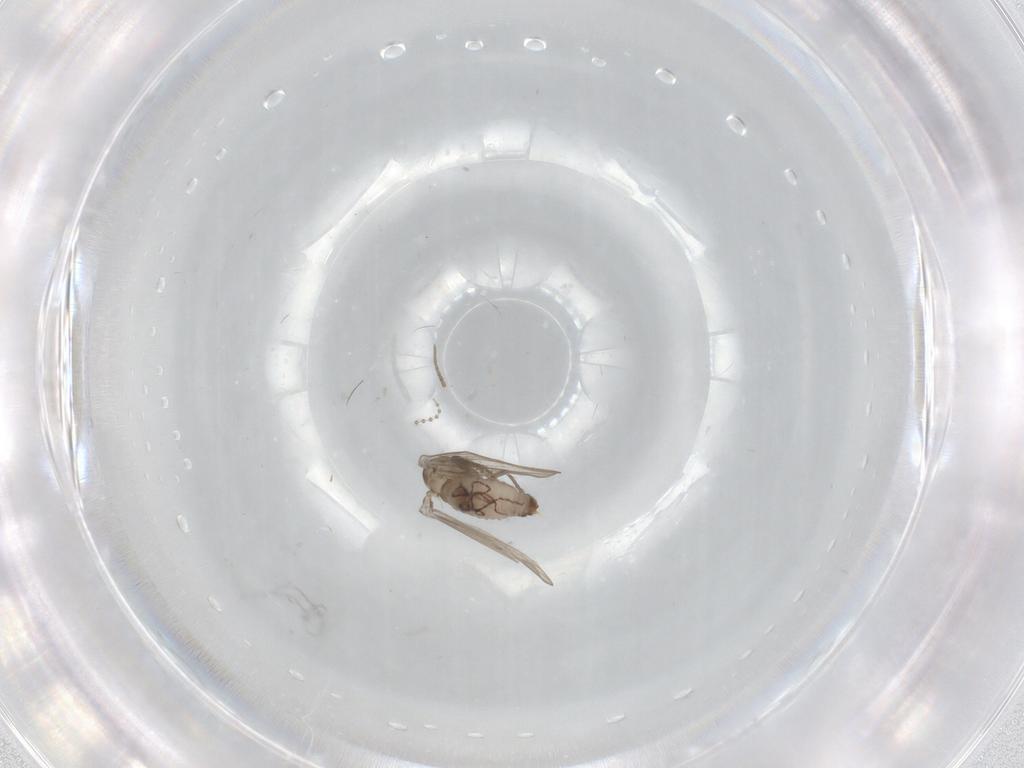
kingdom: Animalia
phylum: Arthropoda
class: Insecta
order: Diptera
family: Psychodidae
